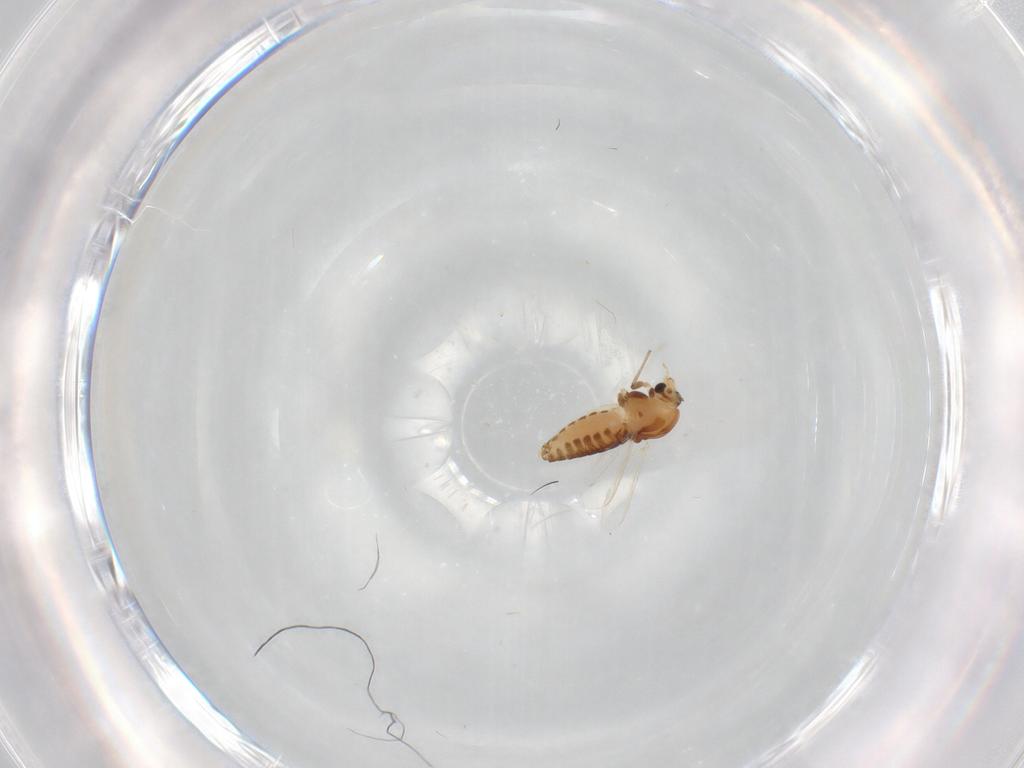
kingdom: Animalia
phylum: Arthropoda
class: Insecta
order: Diptera
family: Chironomidae
